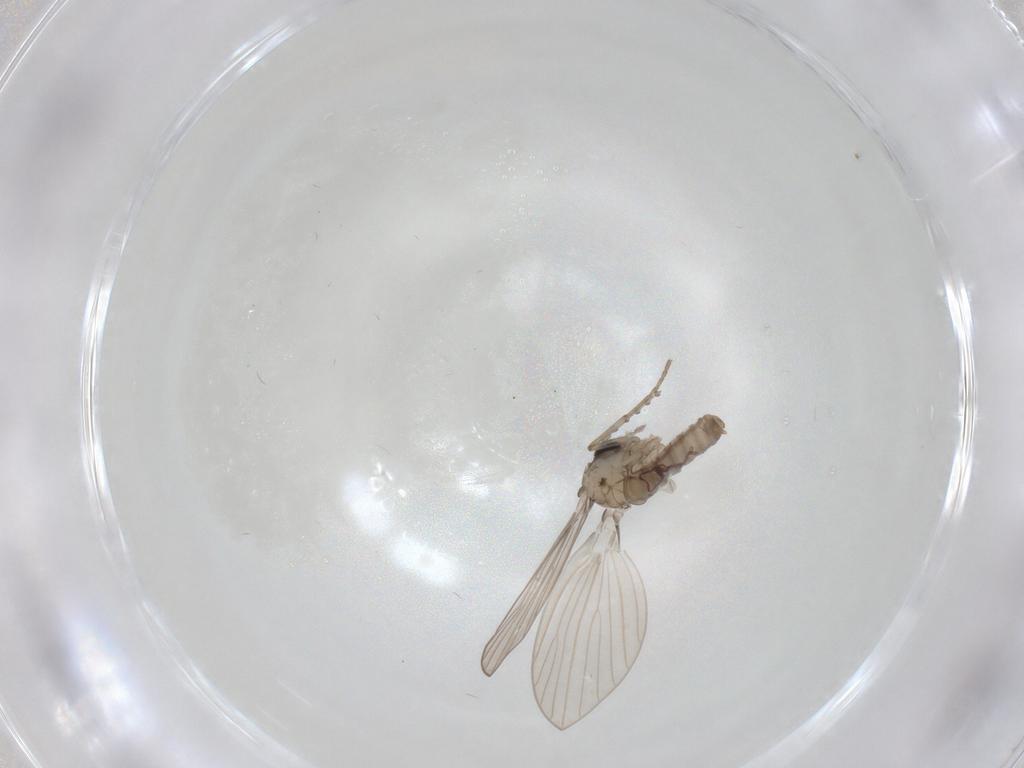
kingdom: Animalia
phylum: Arthropoda
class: Insecta
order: Diptera
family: Psychodidae
